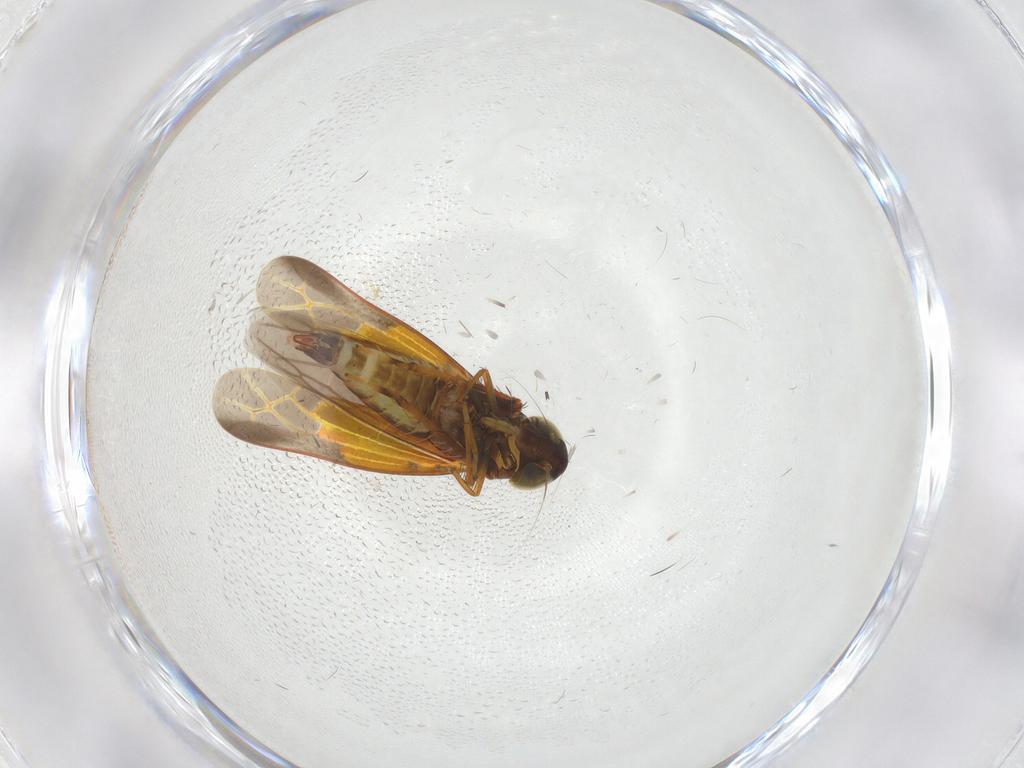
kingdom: Animalia
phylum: Arthropoda
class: Insecta
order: Hemiptera
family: Cicadellidae
